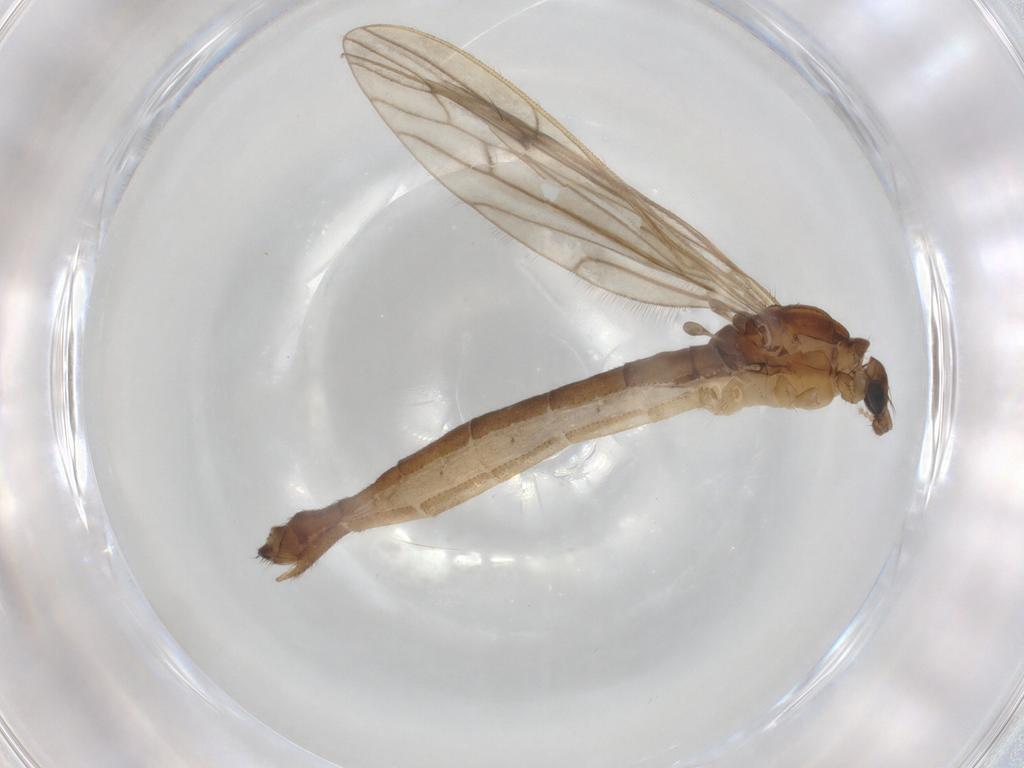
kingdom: Animalia
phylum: Arthropoda
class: Insecta
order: Diptera
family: Limoniidae
